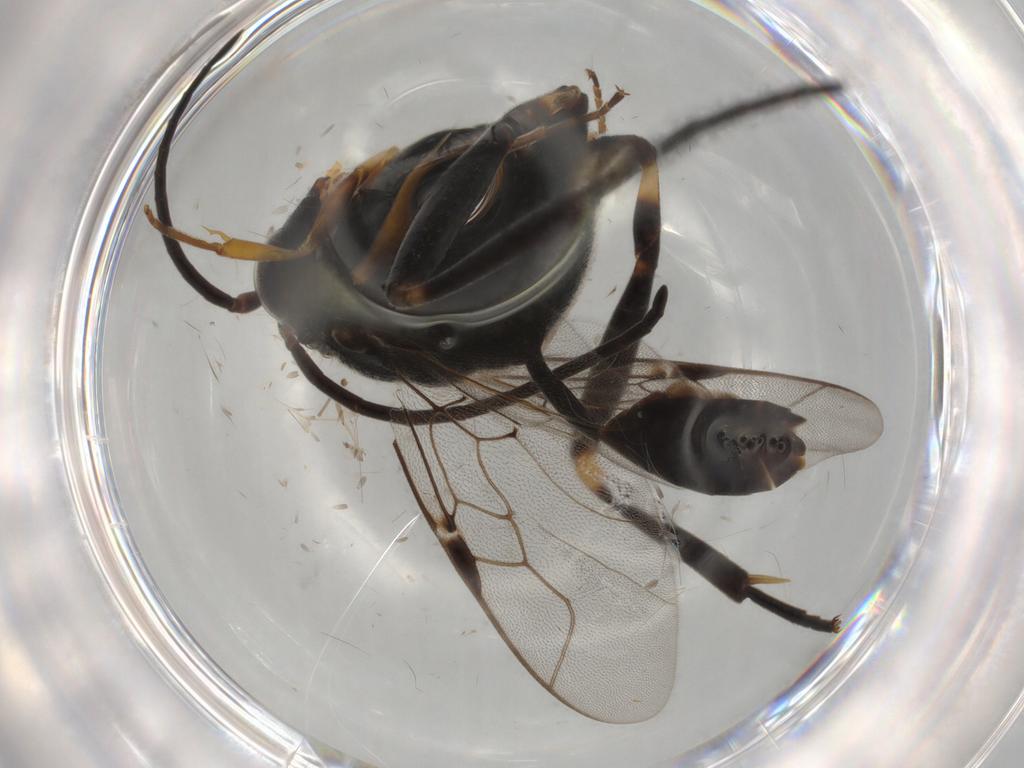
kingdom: Animalia
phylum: Arthropoda
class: Insecta
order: Hymenoptera
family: Evaniidae
